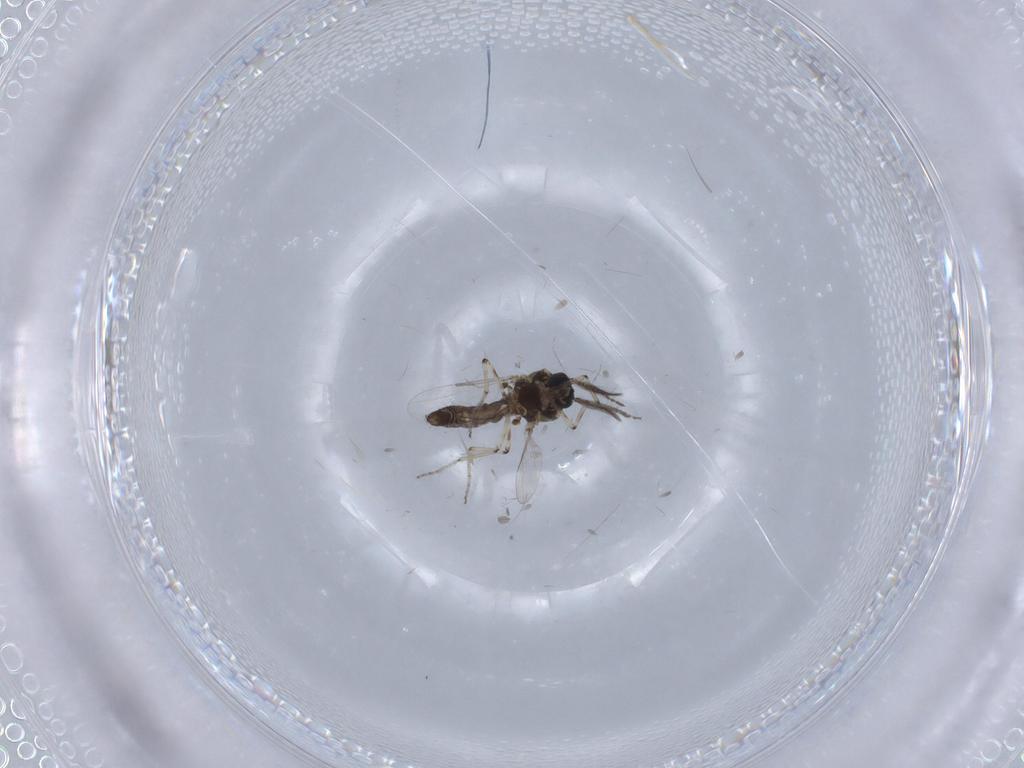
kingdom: Animalia
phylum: Arthropoda
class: Insecta
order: Diptera
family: Chironomidae
